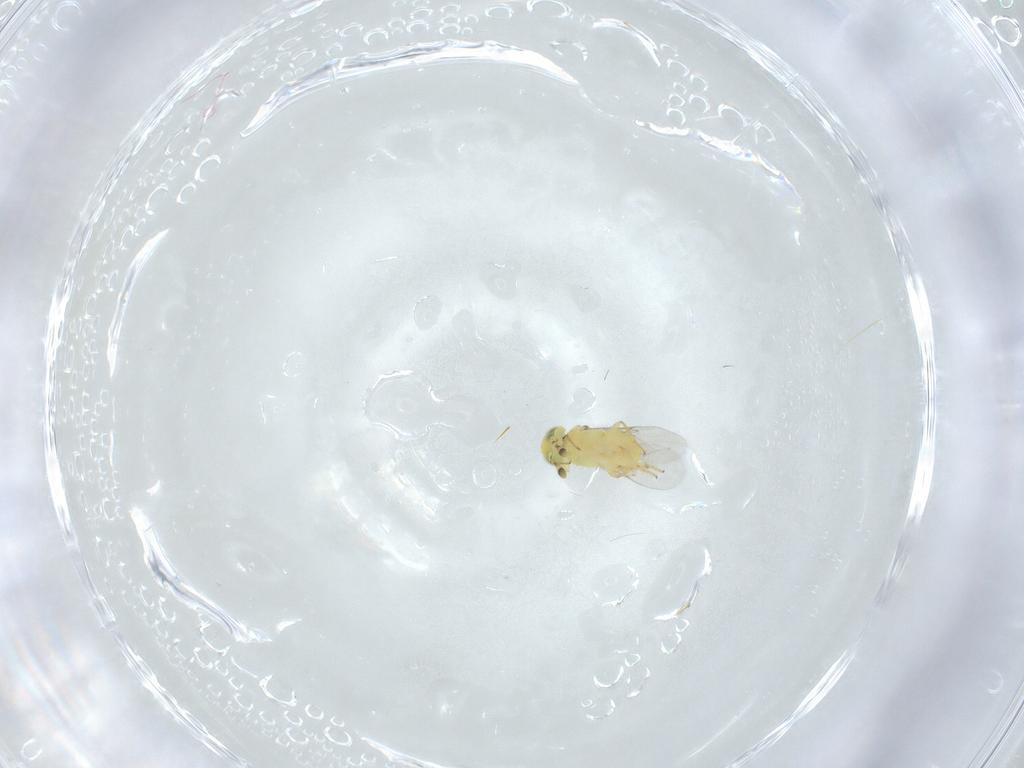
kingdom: Animalia
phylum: Arthropoda
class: Insecta
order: Hymenoptera
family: Encyrtidae
